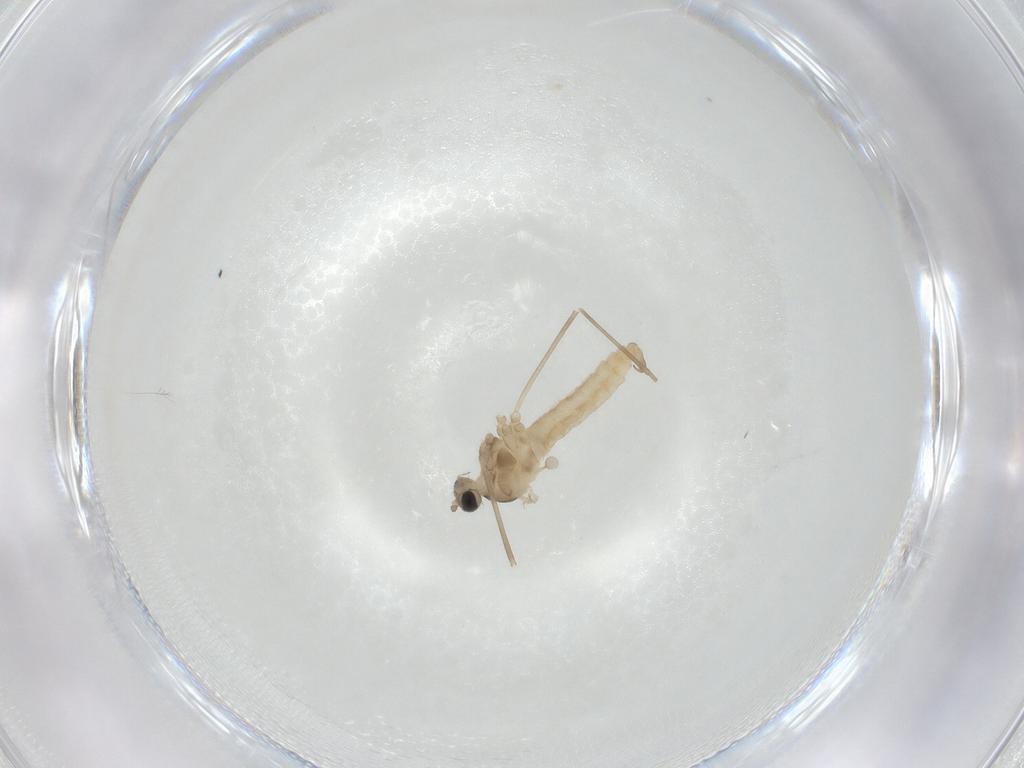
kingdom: Animalia
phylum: Arthropoda
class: Insecta
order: Diptera
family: Cecidomyiidae
